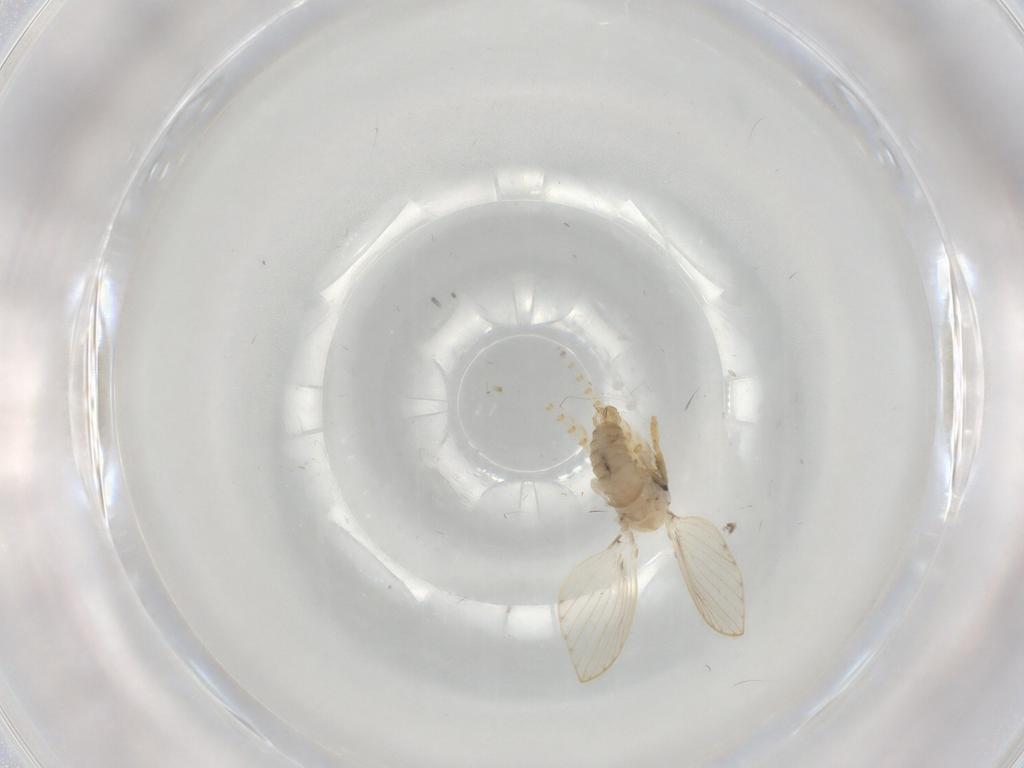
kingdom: Animalia
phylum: Arthropoda
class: Insecta
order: Diptera
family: Psychodidae
